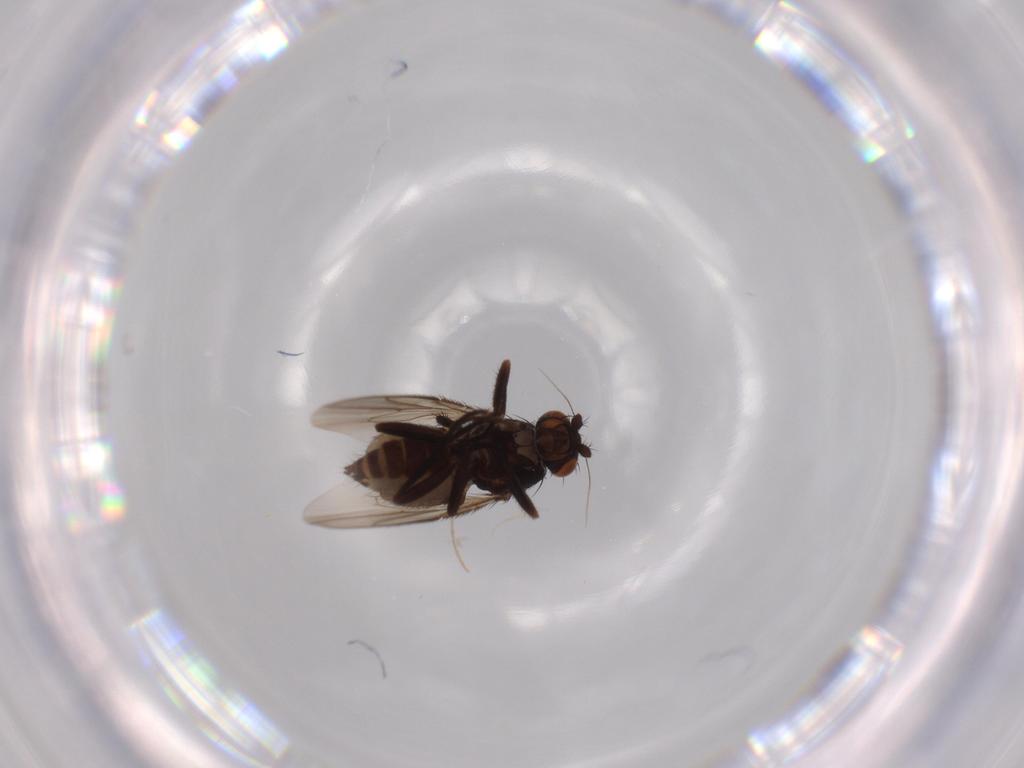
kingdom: Animalia
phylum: Arthropoda
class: Insecta
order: Diptera
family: Sphaeroceridae
